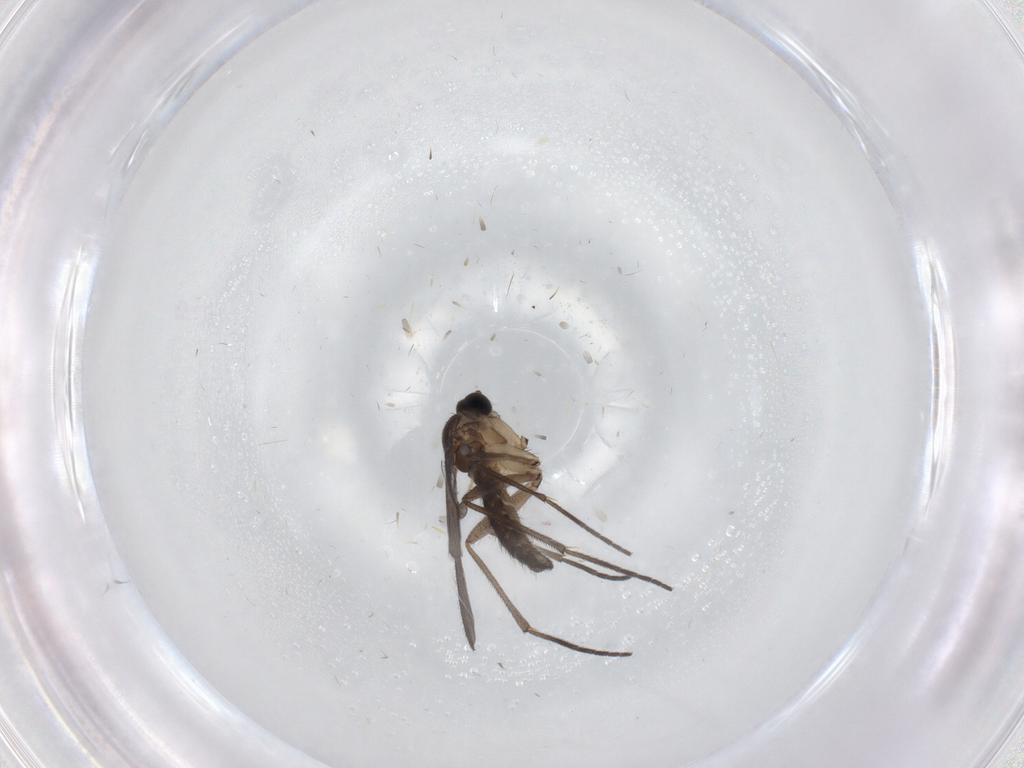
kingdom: Animalia
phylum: Arthropoda
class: Insecta
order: Diptera
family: Sciaridae
